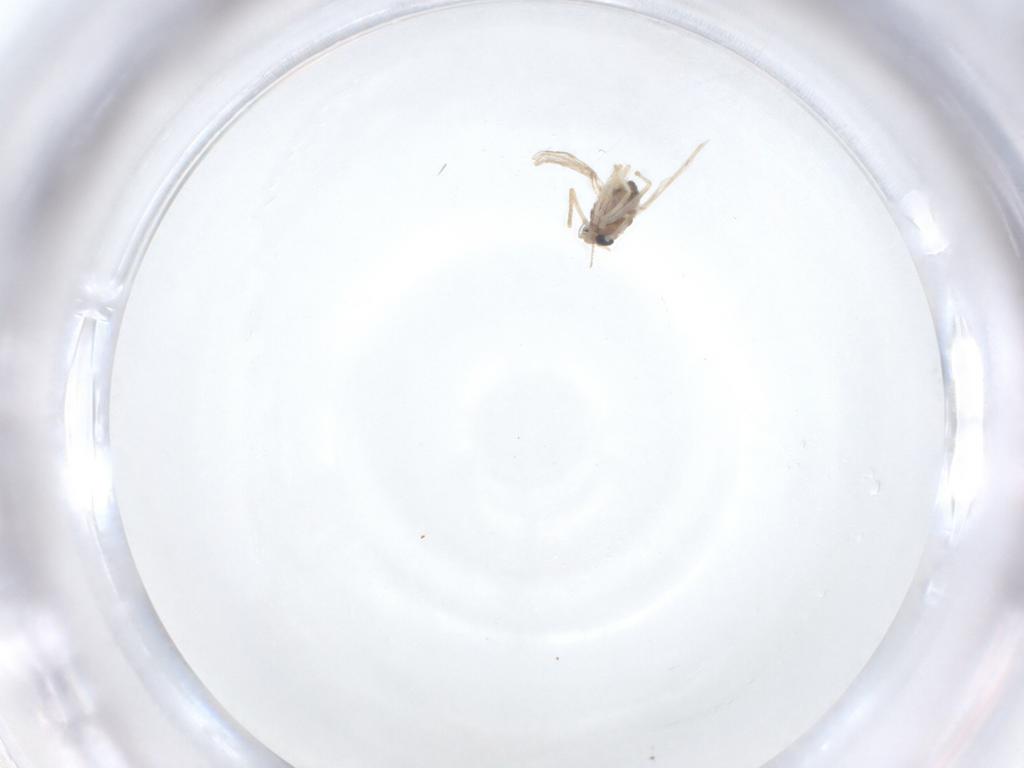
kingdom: Animalia
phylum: Arthropoda
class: Insecta
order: Diptera
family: Chironomidae
